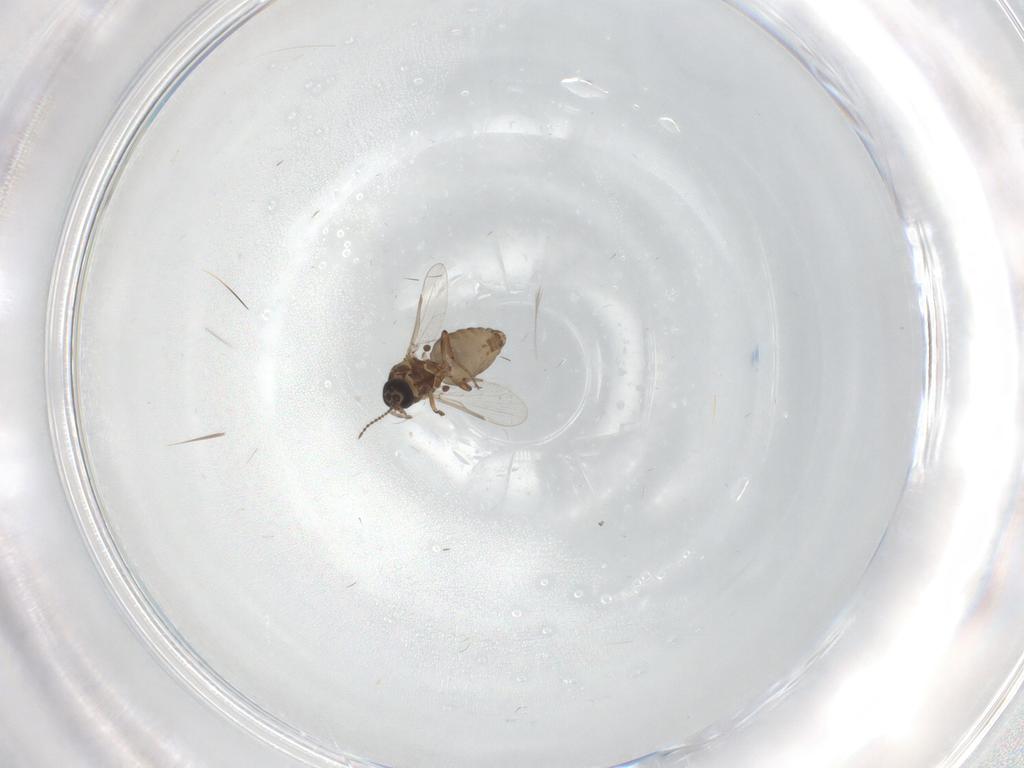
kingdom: Animalia
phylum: Arthropoda
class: Insecta
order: Diptera
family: Ceratopogonidae
